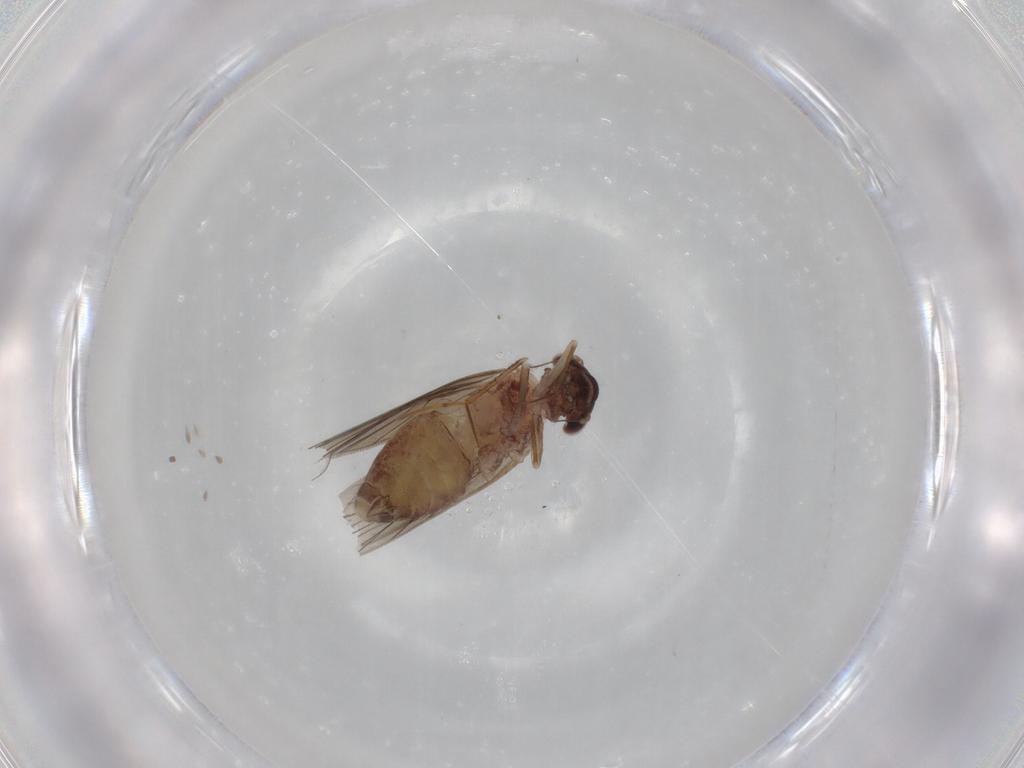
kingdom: Animalia
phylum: Arthropoda
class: Insecta
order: Psocodea
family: Lepidopsocidae
